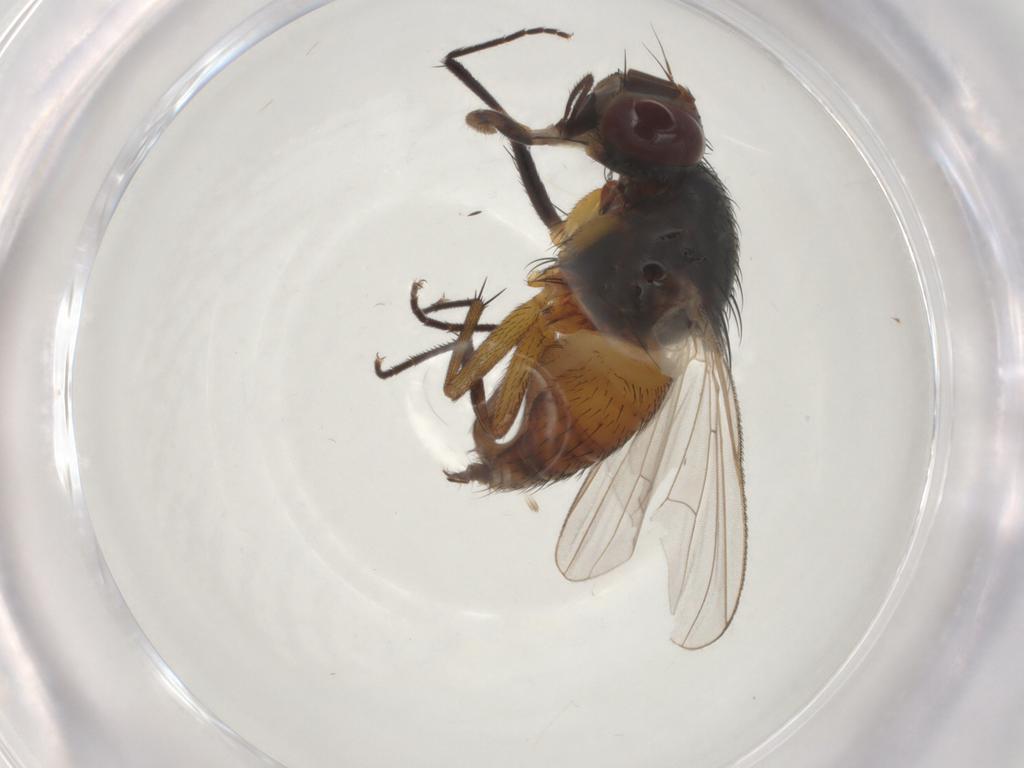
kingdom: Animalia
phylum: Arthropoda
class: Insecta
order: Diptera
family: Muscidae
